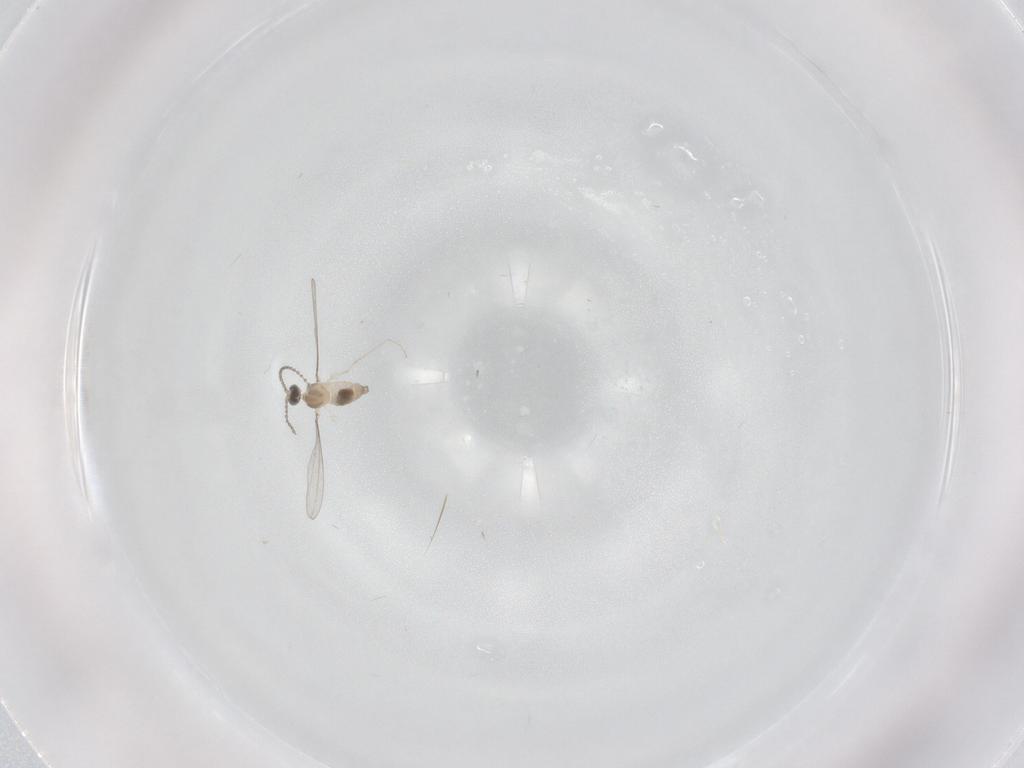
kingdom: Animalia
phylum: Arthropoda
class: Insecta
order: Diptera
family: Cecidomyiidae
